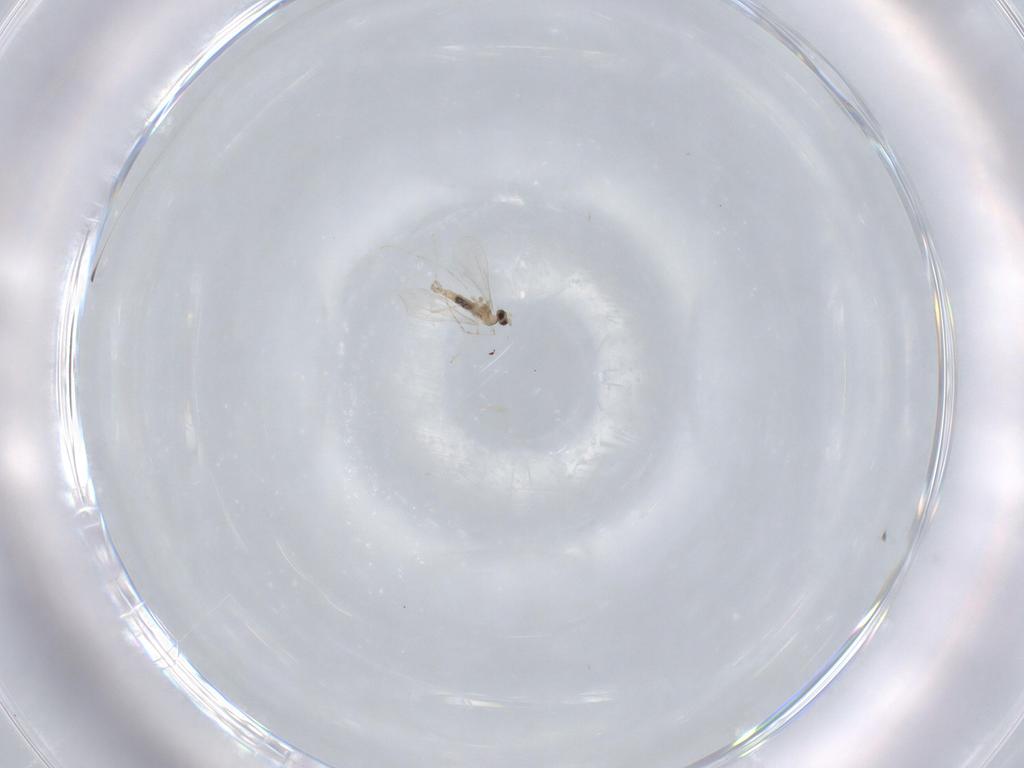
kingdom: Animalia
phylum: Arthropoda
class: Insecta
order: Diptera
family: Cecidomyiidae
